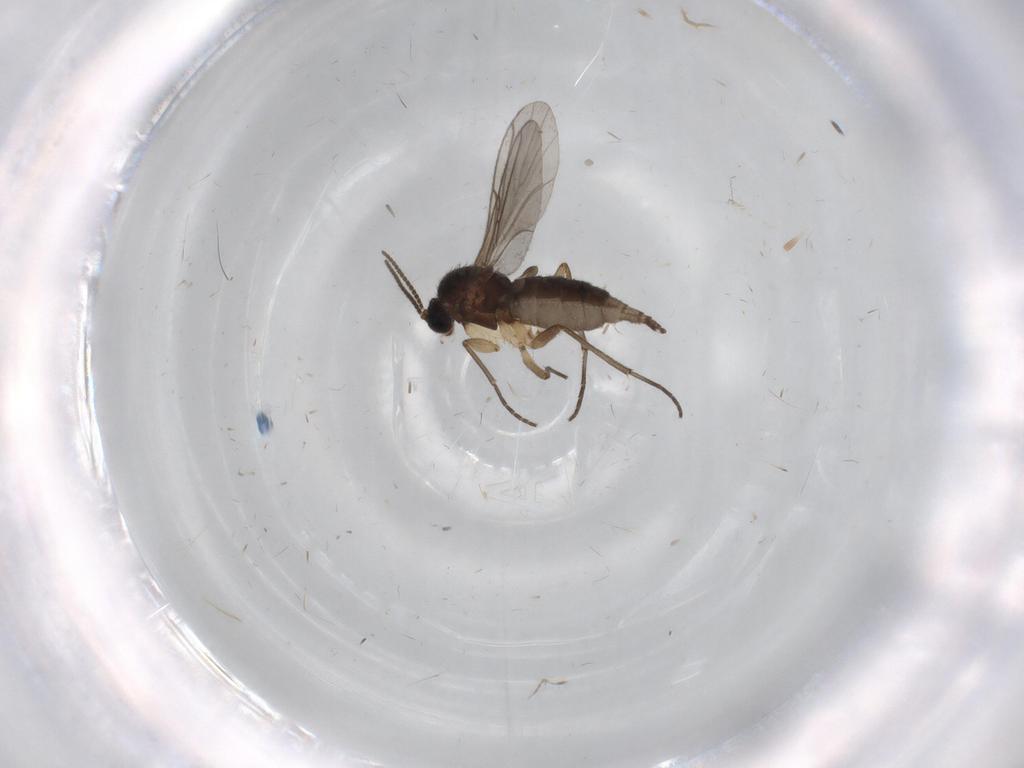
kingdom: Animalia
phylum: Arthropoda
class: Insecta
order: Diptera
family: Sciaridae
